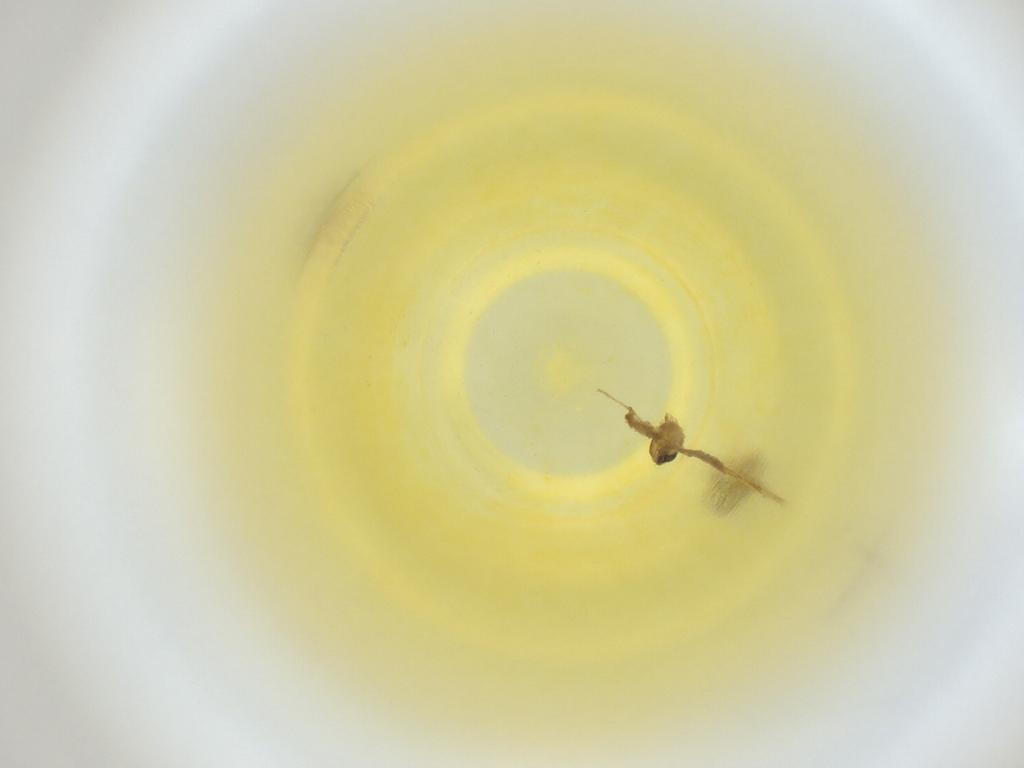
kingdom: Animalia
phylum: Arthropoda
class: Insecta
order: Diptera
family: Cecidomyiidae
